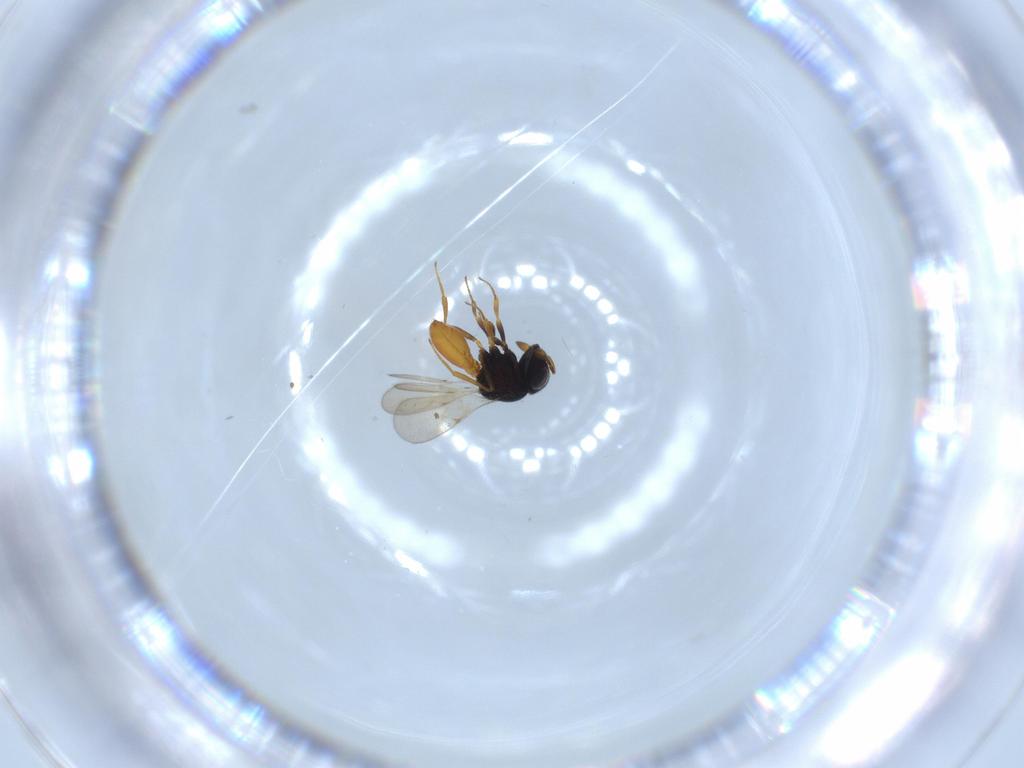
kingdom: Animalia
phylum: Arthropoda
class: Insecta
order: Hymenoptera
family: Scelionidae
